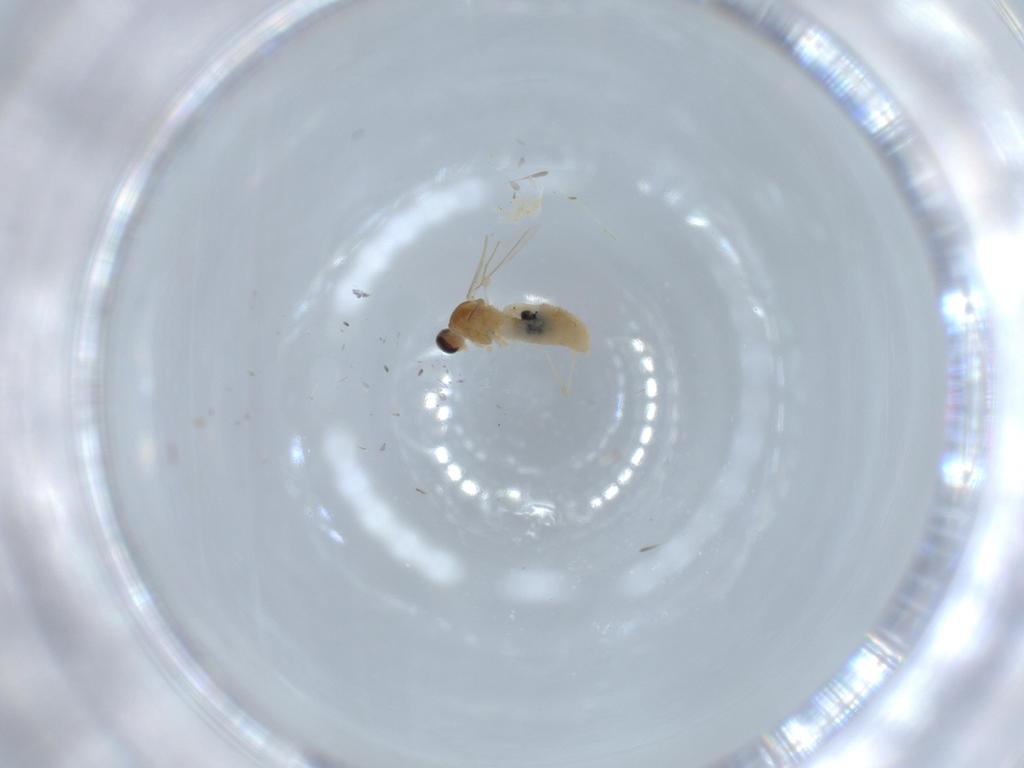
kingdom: Animalia
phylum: Arthropoda
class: Insecta
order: Diptera
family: Cecidomyiidae
